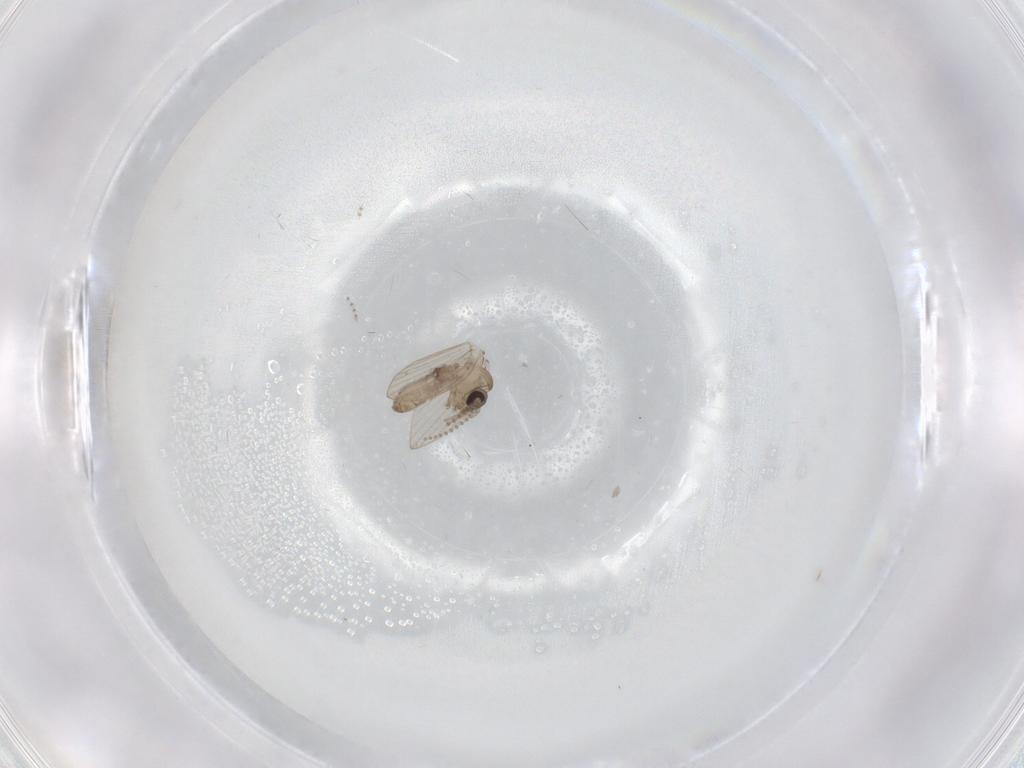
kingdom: Animalia
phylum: Arthropoda
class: Insecta
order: Diptera
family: Psychodidae
